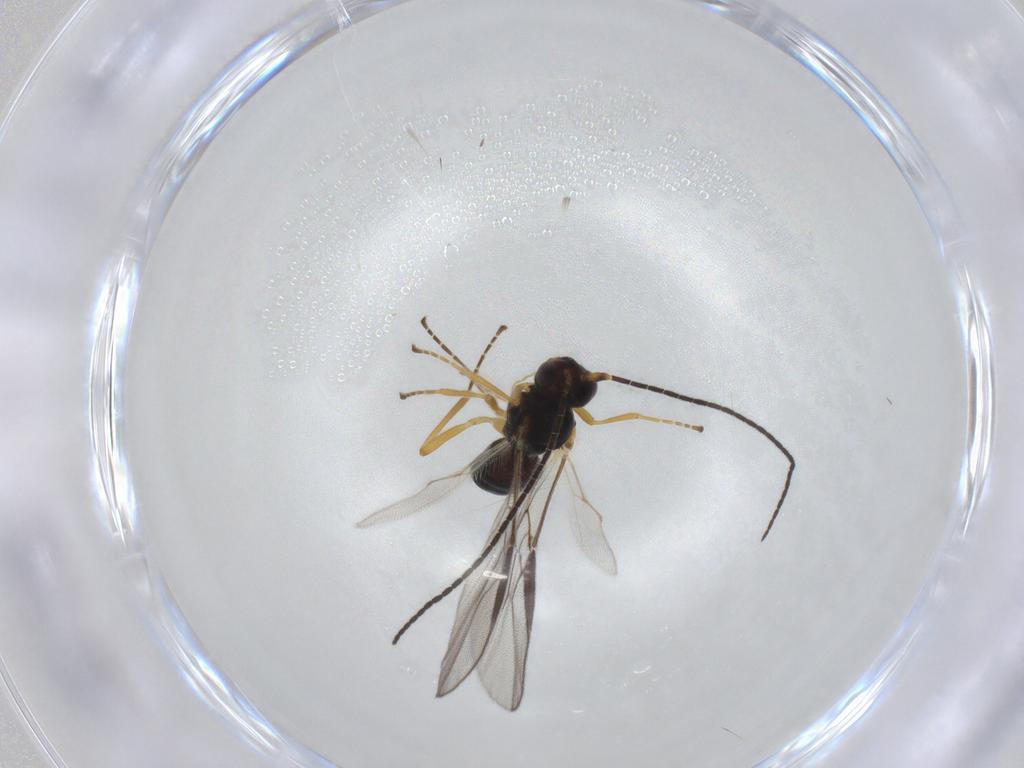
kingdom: Animalia
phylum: Arthropoda
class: Insecta
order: Hymenoptera
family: Braconidae
